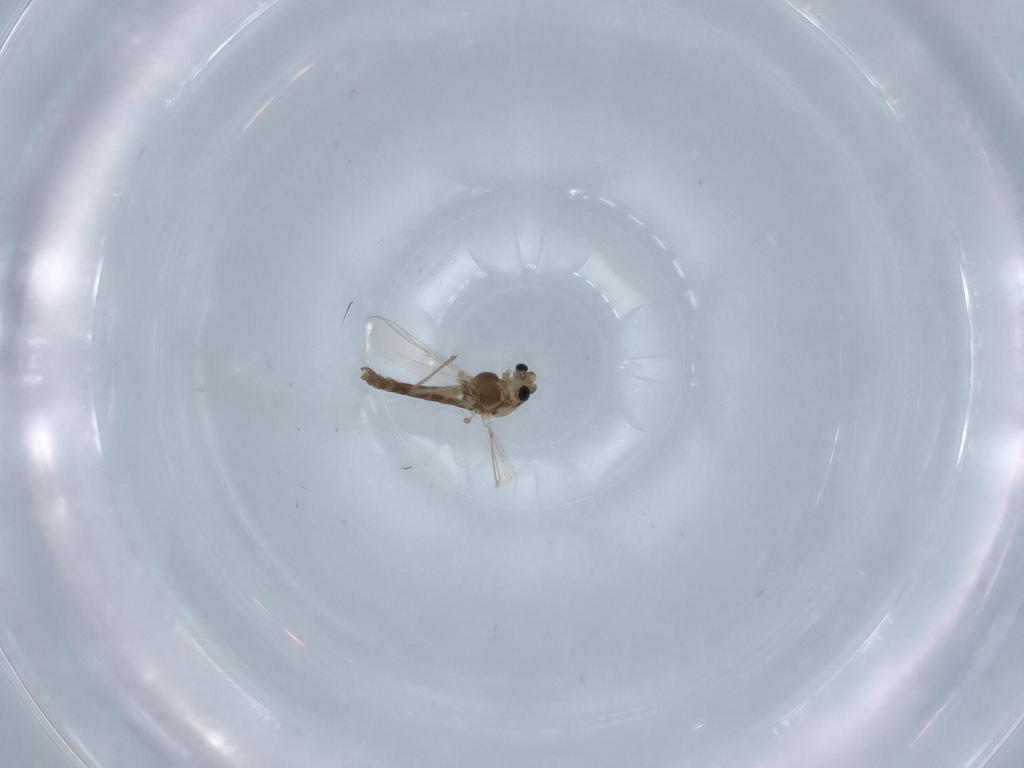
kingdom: Animalia
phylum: Arthropoda
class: Insecta
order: Diptera
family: Chironomidae
